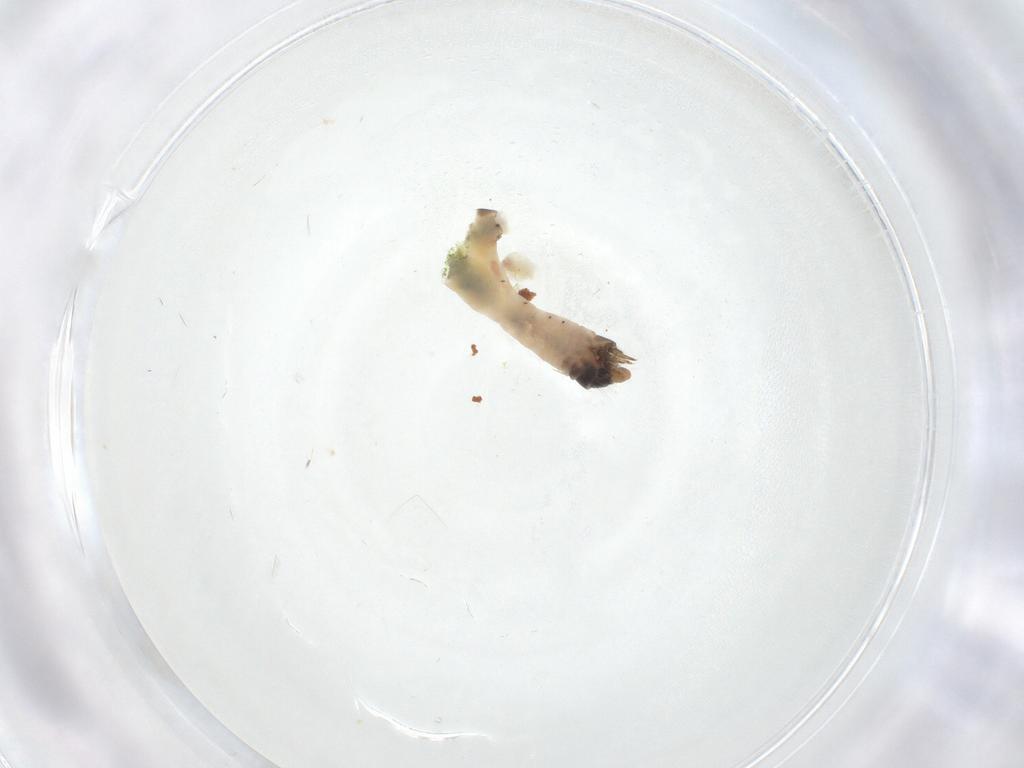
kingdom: Animalia
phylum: Arthropoda
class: Insecta
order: Lepidoptera
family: Psychidae
